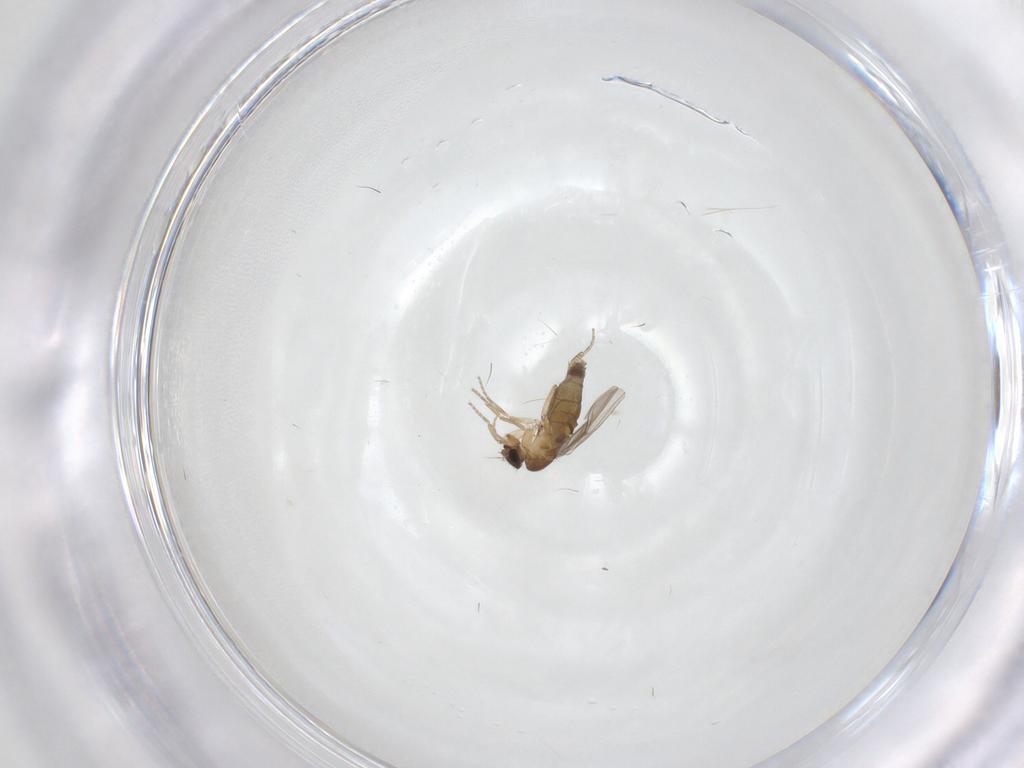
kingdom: Animalia
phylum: Arthropoda
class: Insecta
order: Diptera
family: Phoridae
